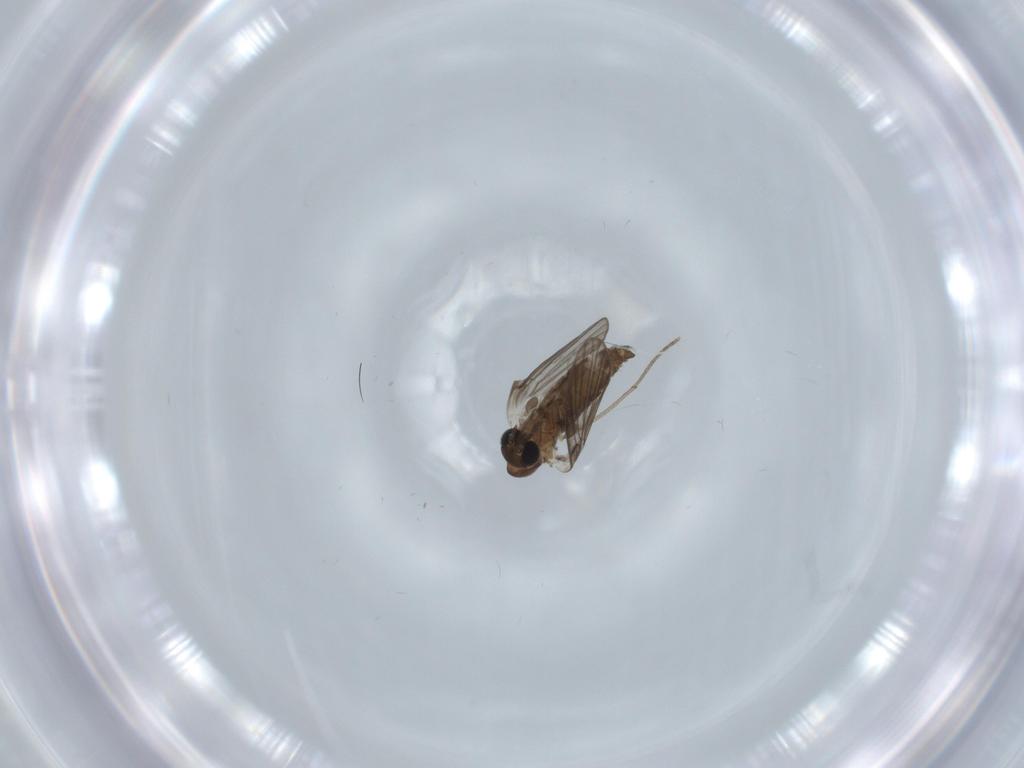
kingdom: Animalia
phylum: Arthropoda
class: Insecta
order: Diptera
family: Psychodidae
